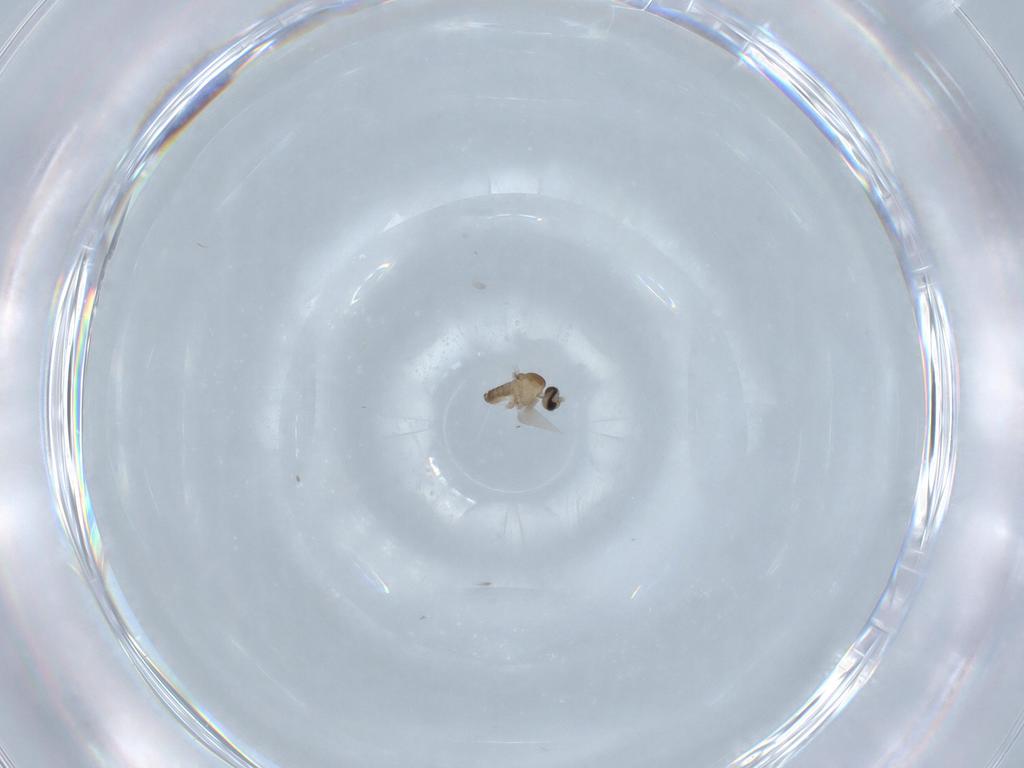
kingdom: Animalia
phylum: Arthropoda
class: Insecta
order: Diptera
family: Cecidomyiidae
